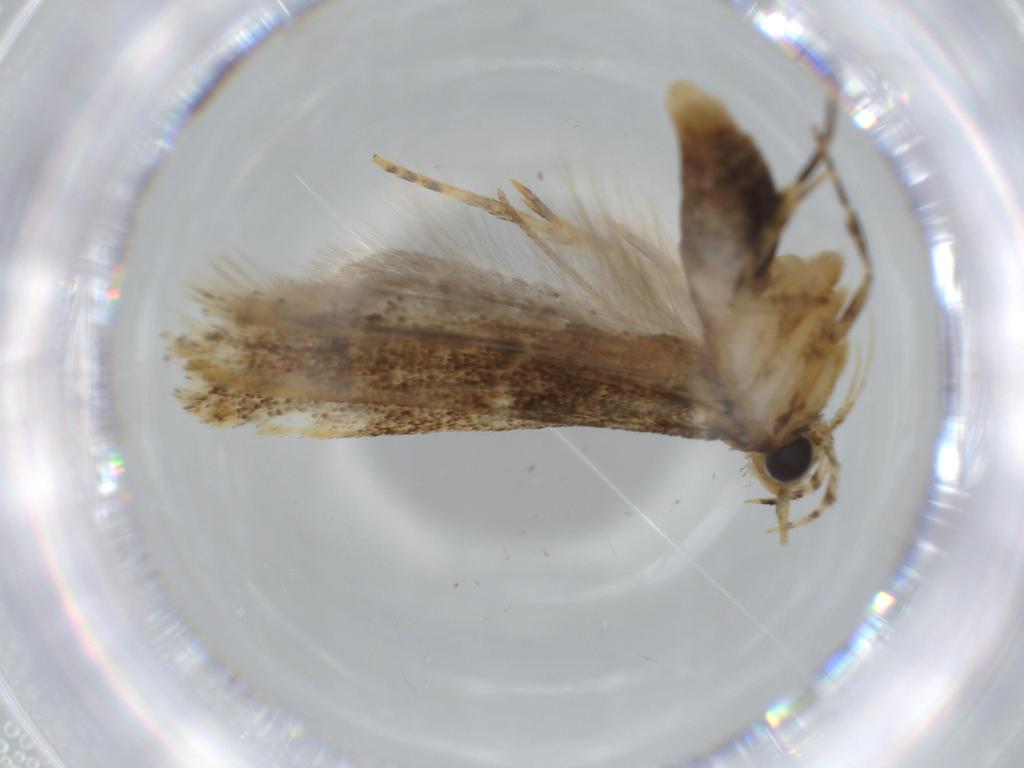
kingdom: Animalia
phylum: Arthropoda
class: Insecta
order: Lepidoptera
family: Gelechiidae
